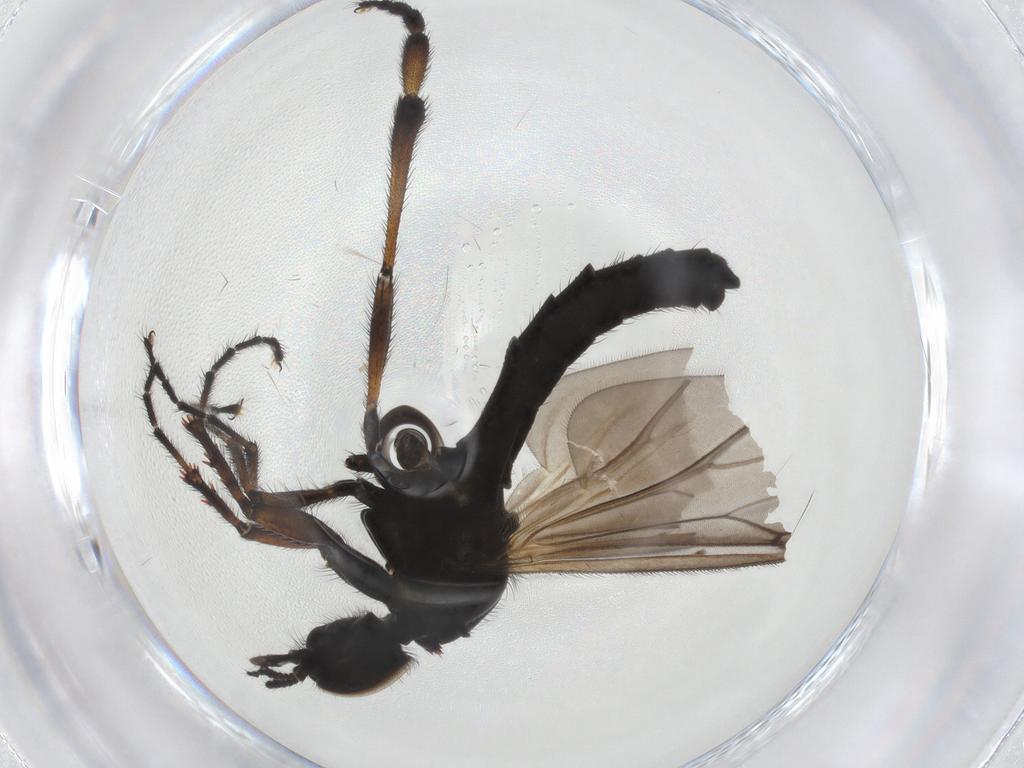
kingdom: Animalia
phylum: Arthropoda
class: Insecta
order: Diptera
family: Bibionidae
